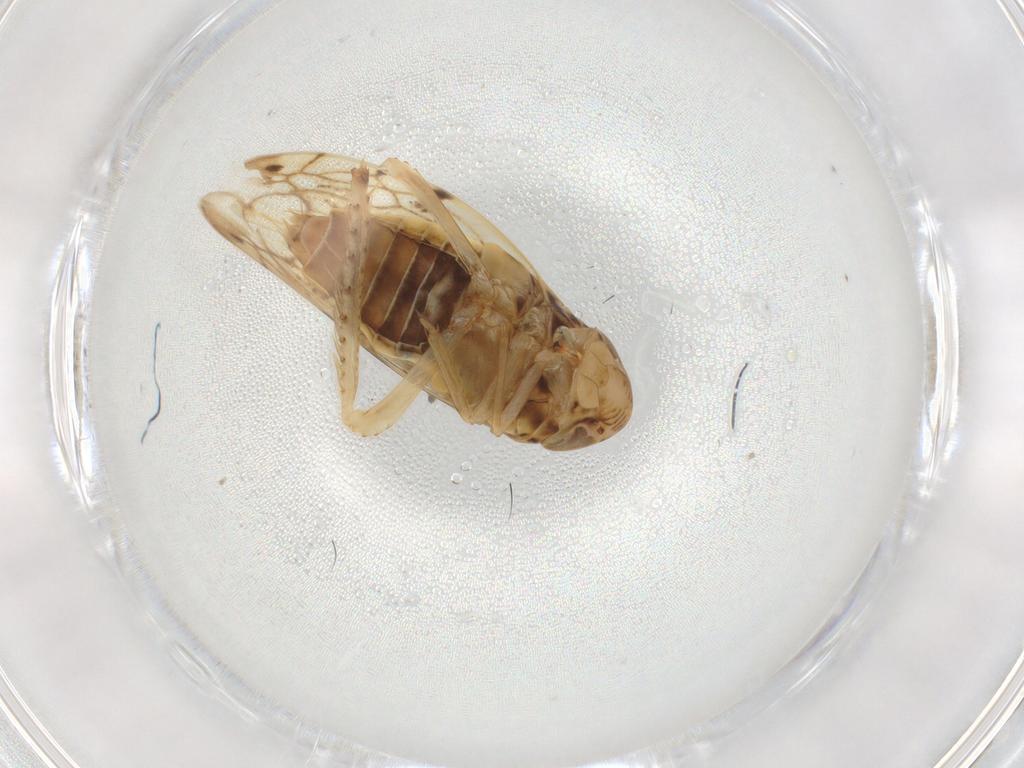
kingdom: Animalia
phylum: Arthropoda
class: Insecta
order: Hemiptera
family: Cicadellidae
